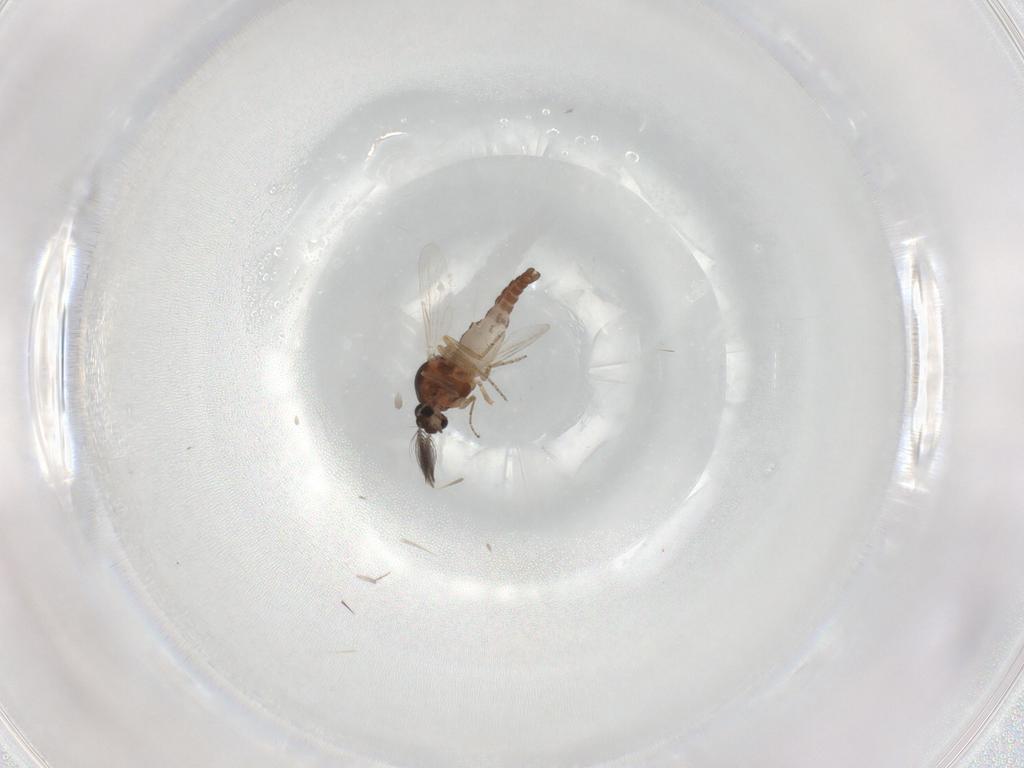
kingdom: Animalia
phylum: Arthropoda
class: Insecta
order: Diptera
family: Ceratopogonidae
